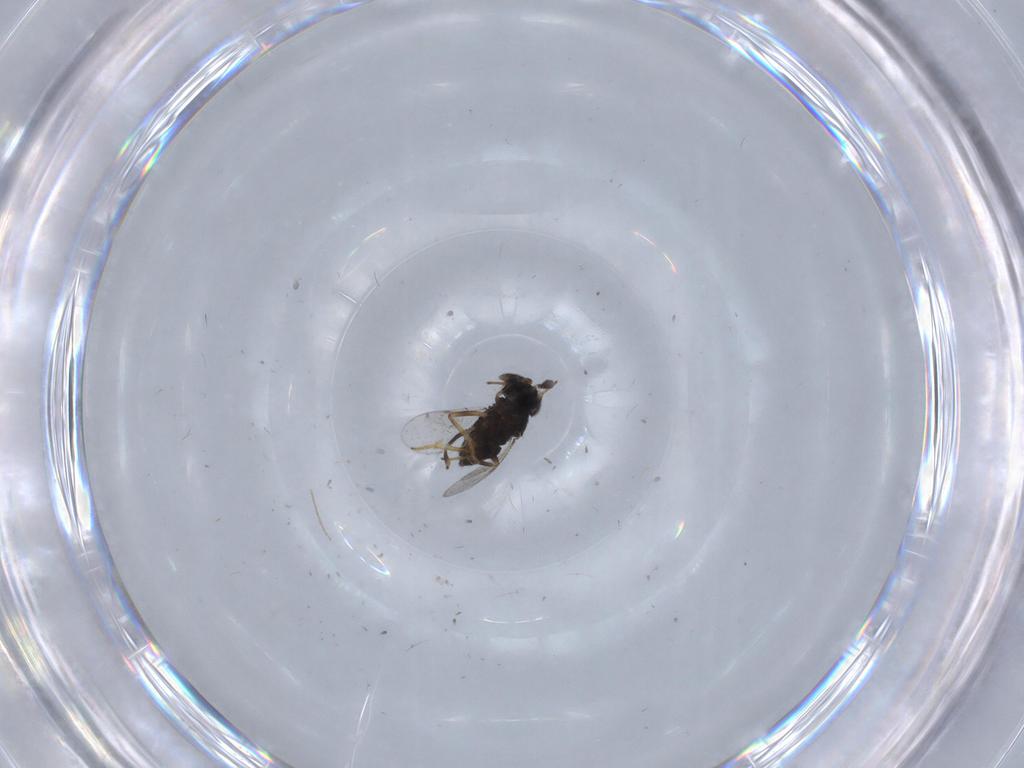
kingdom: Animalia
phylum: Arthropoda
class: Insecta
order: Diptera
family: Chironomidae
